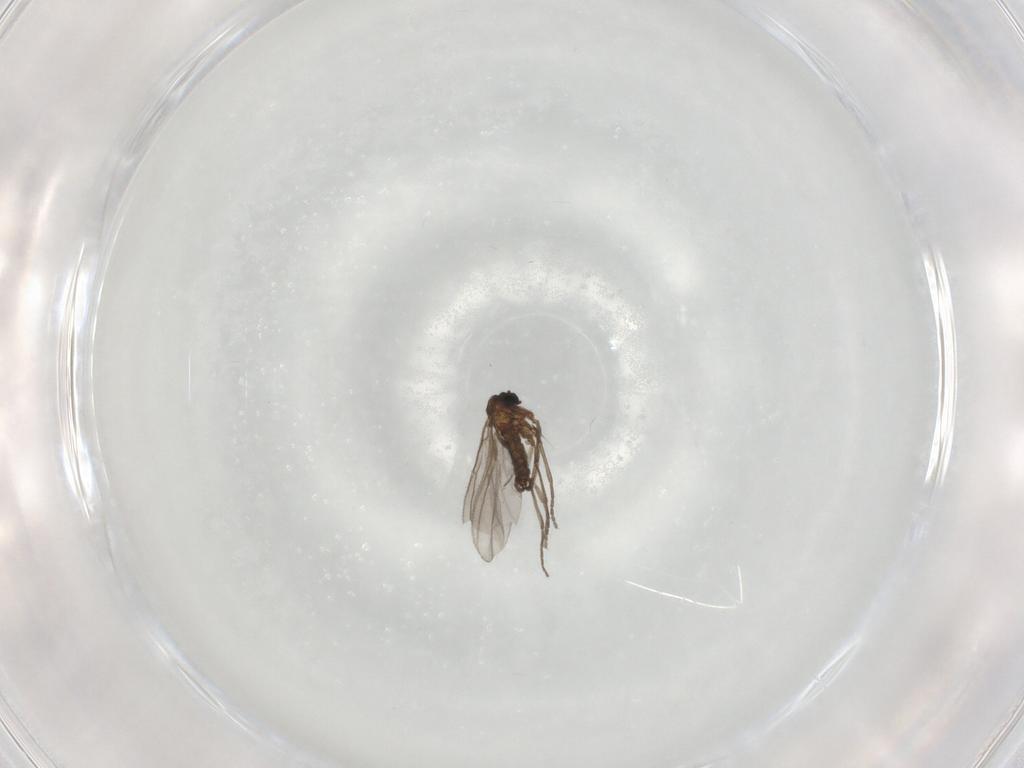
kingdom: Animalia
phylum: Arthropoda
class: Insecta
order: Diptera
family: Sciaridae
